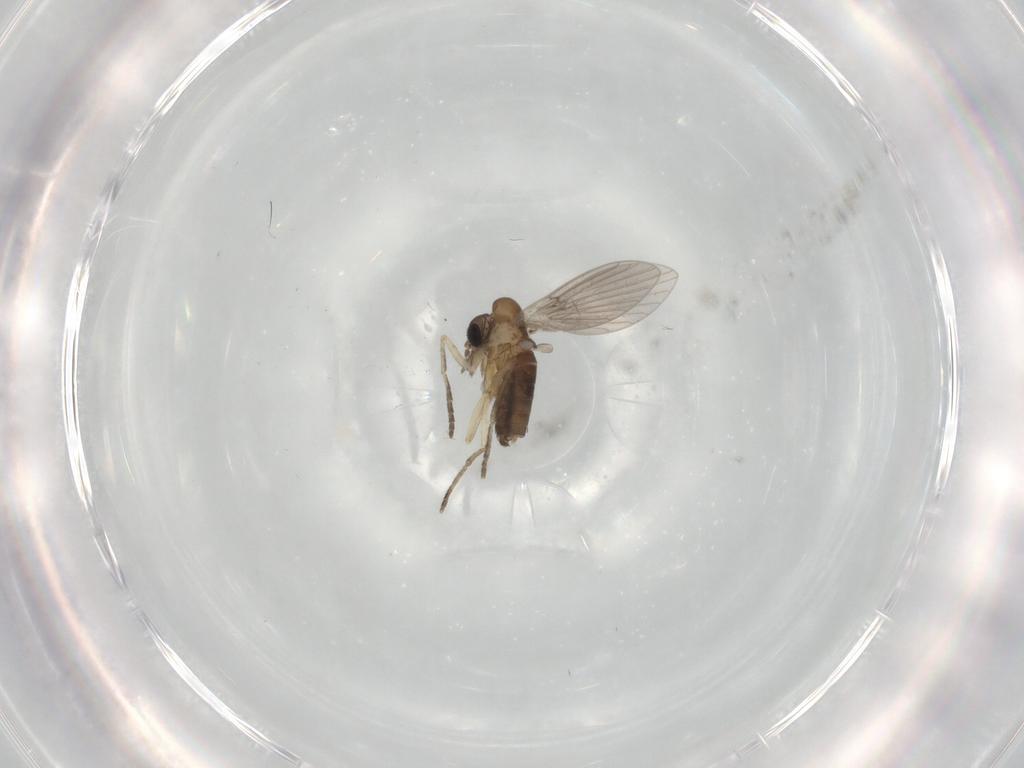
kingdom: Animalia
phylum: Arthropoda
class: Insecta
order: Diptera
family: Psychodidae
